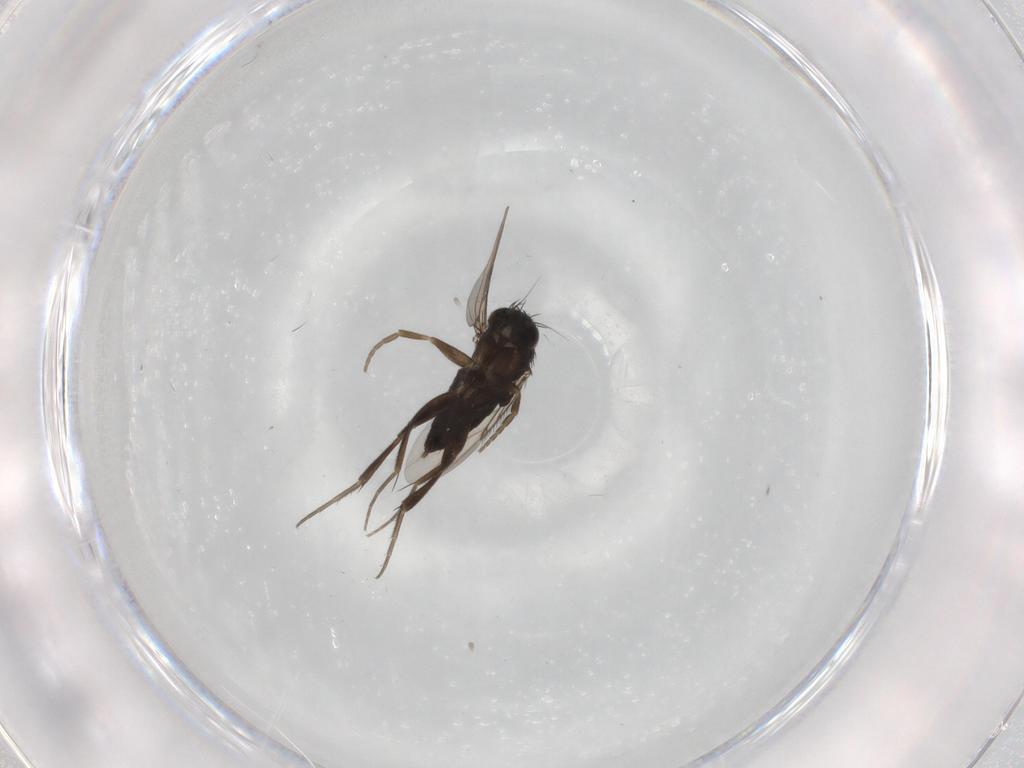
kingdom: Animalia
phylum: Arthropoda
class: Insecta
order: Diptera
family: Phoridae
